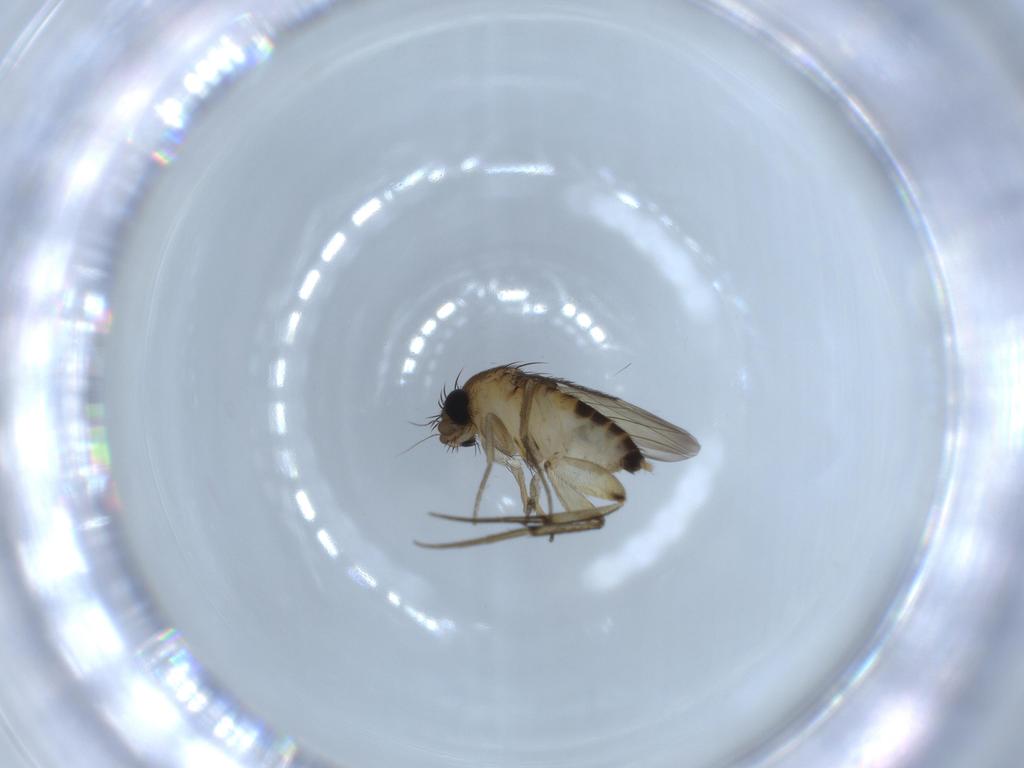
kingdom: Animalia
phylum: Arthropoda
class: Insecta
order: Diptera
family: Phoridae
